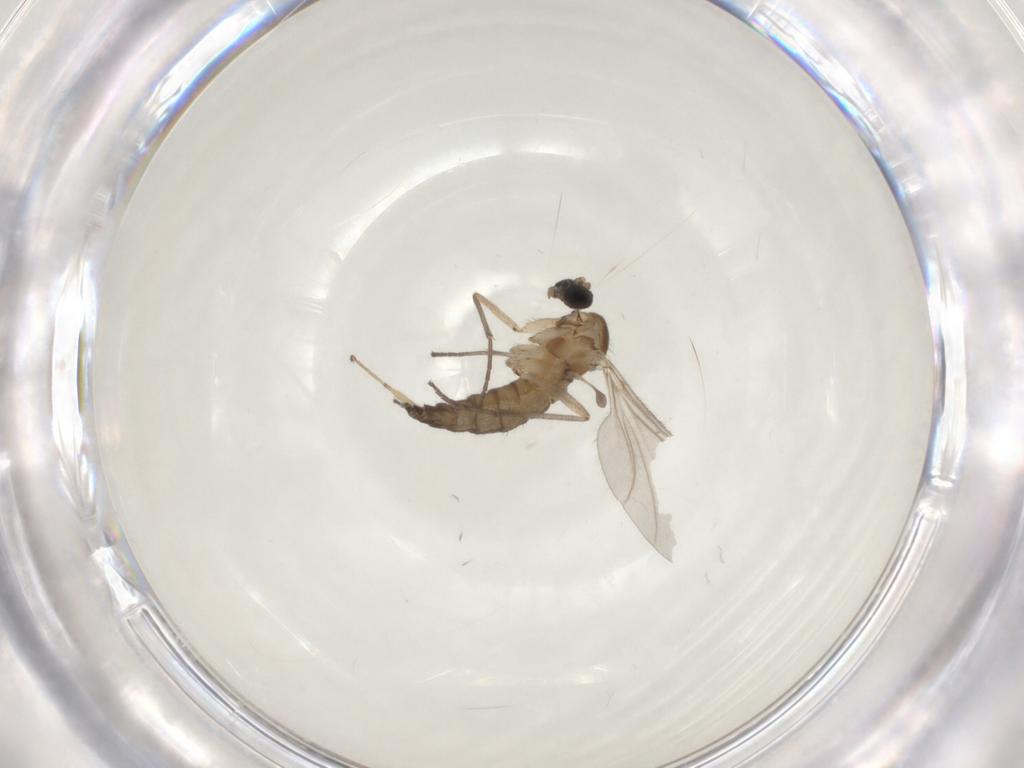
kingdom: Animalia
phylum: Arthropoda
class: Insecta
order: Diptera
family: Sciaridae
